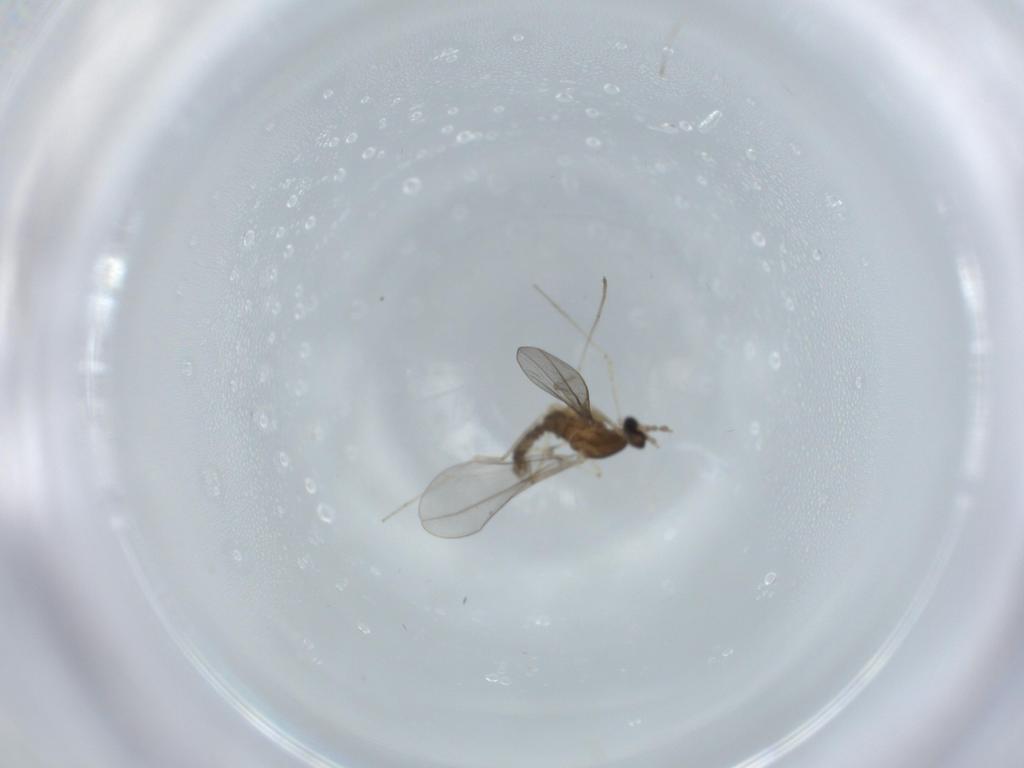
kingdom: Animalia
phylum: Arthropoda
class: Insecta
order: Diptera
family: Cecidomyiidae
